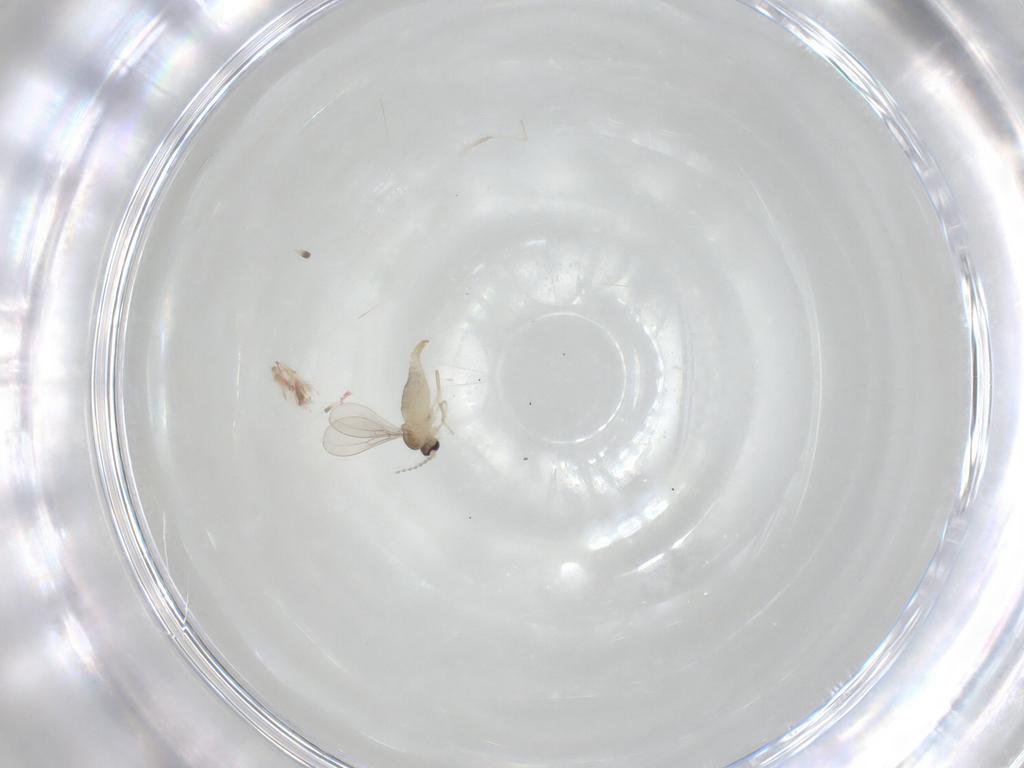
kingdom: Animalia
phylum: Arthropoda
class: Insecta
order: Diptera
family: Cecidomyiidae
